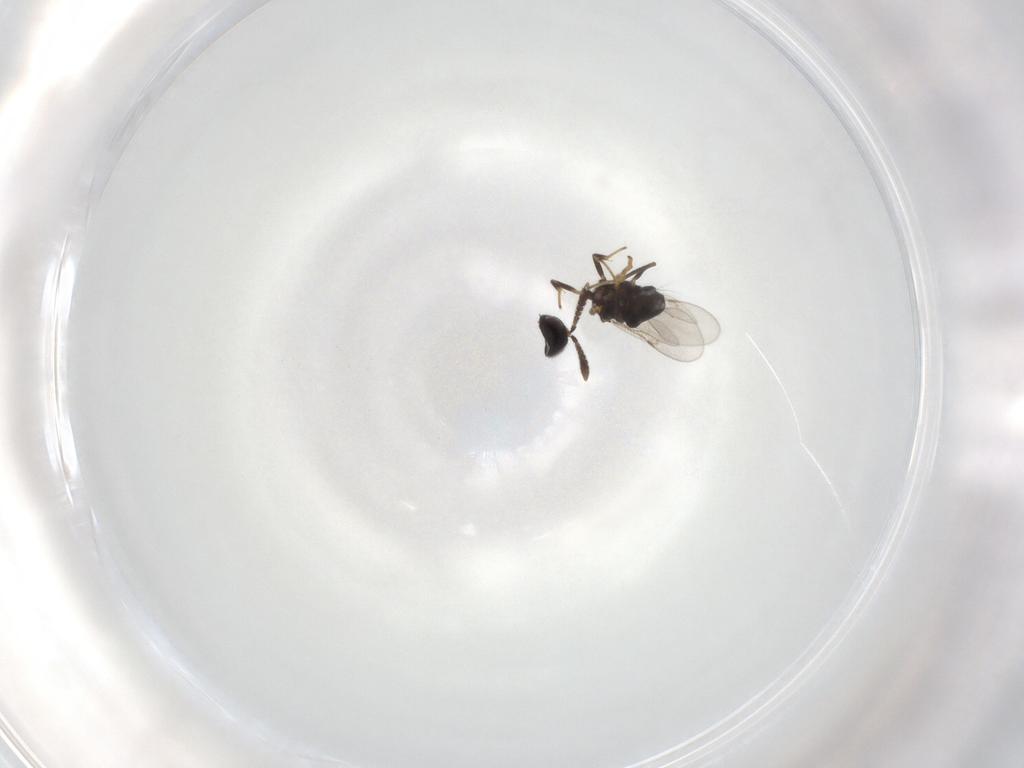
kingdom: Animalia
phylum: Arthropoda
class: Insecta
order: Hymenoptera
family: Encyrtidae
